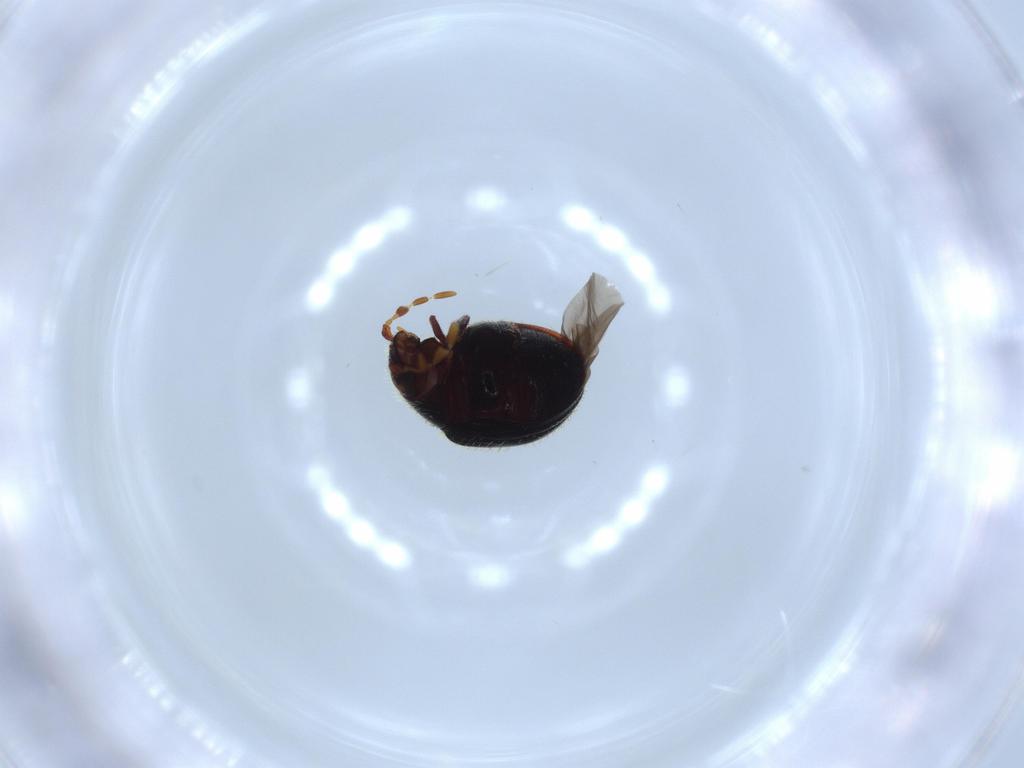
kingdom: Animalia
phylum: Arthropoda
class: Insecta
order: Coleoptera
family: Ptinidae
